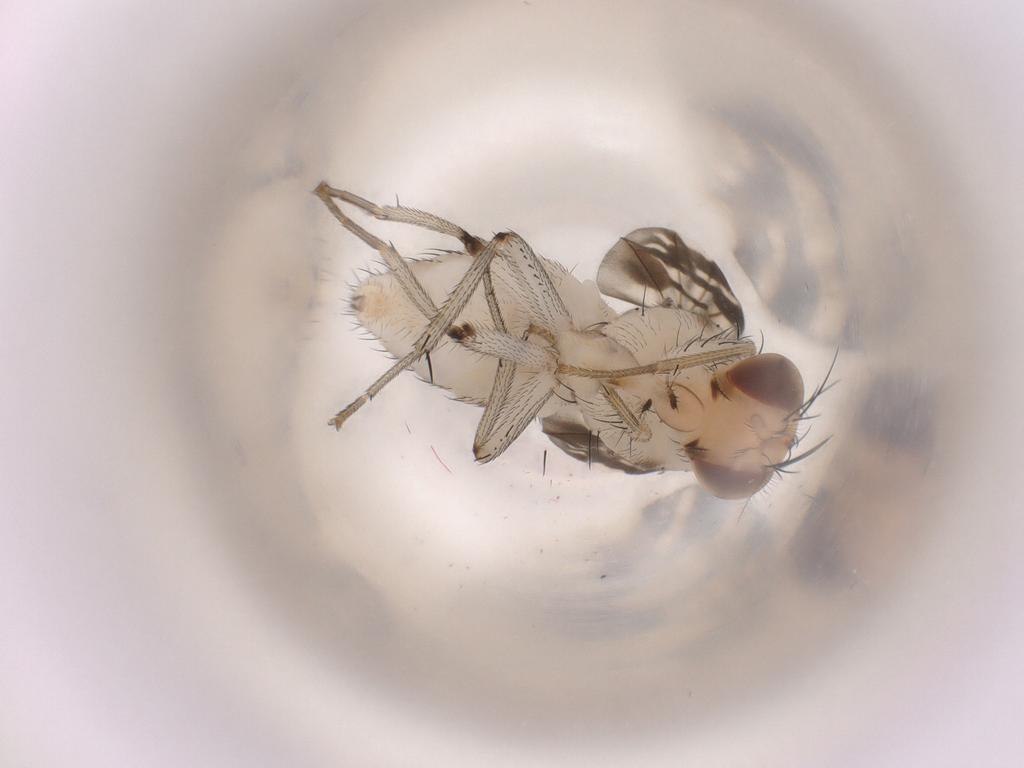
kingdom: Animalia
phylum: Arthropoda
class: Insecta
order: Diptera
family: Hybotidae
